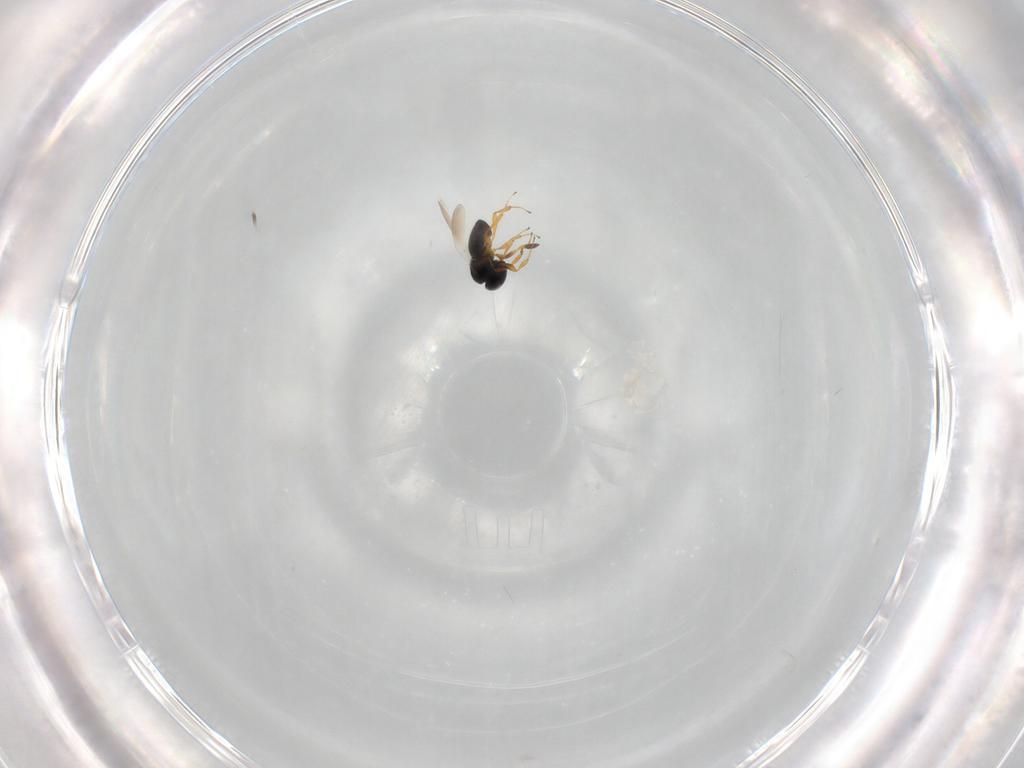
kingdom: Animalia
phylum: Arthropoda
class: Insecta
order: Hymenoptera
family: Platygastridae
